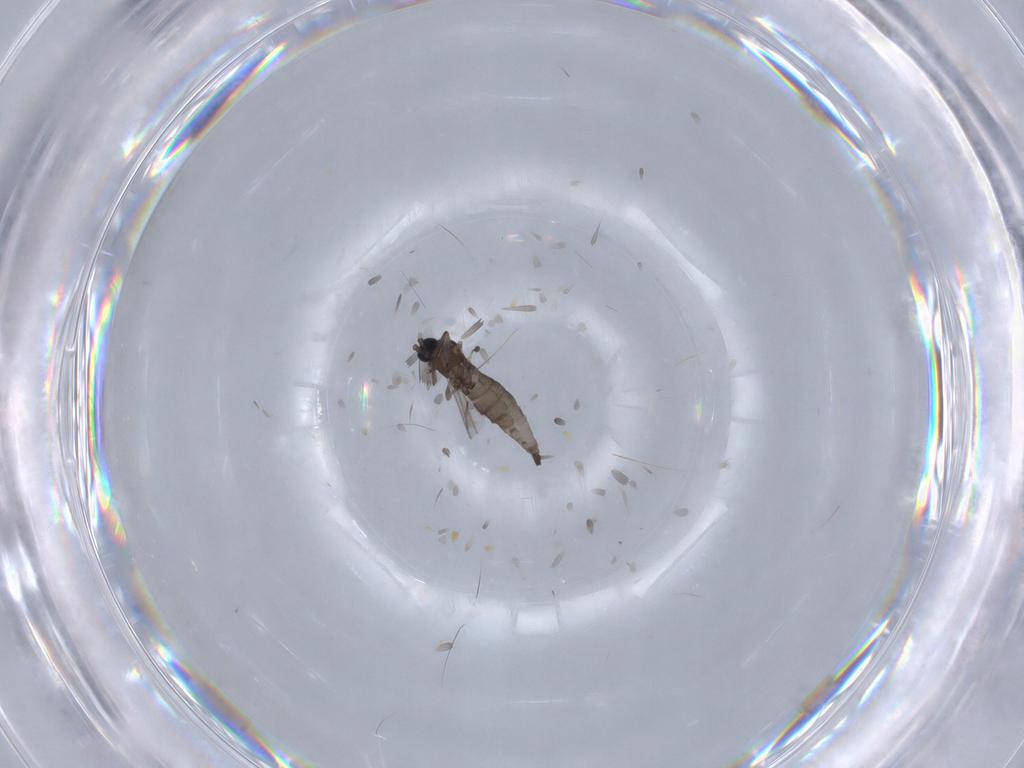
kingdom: Animalia
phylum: Arthropoda
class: Insecta
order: Diptera
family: Sciaridae
